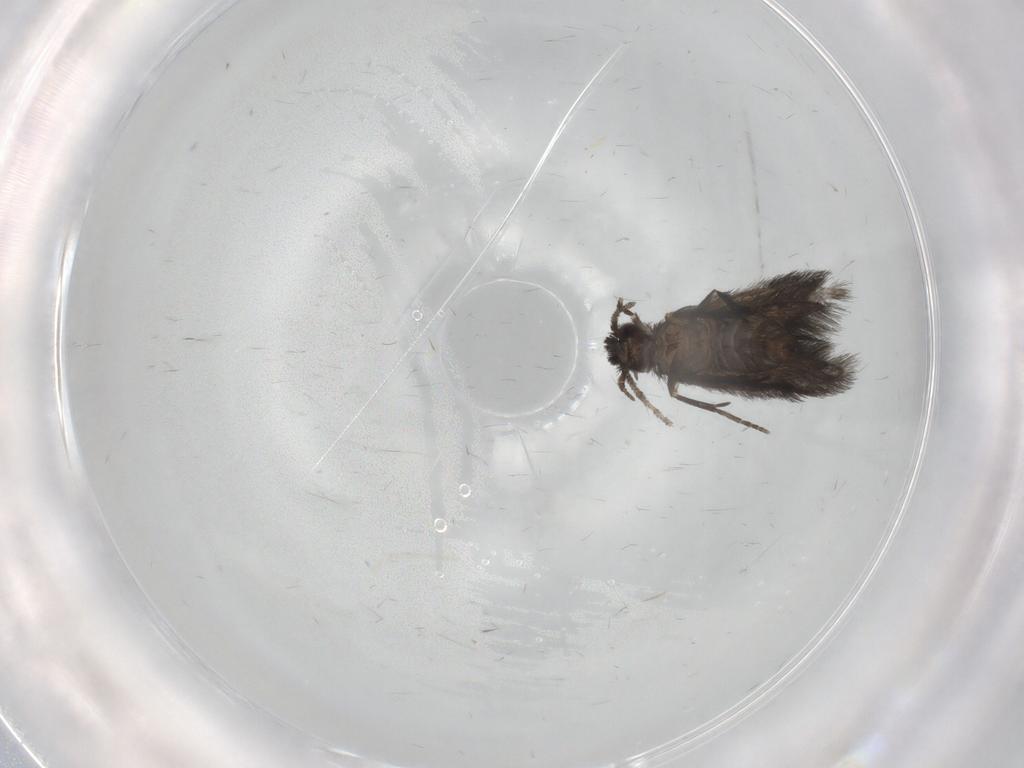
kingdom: Animalia
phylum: Arthropoda
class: Insecta
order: Trichoptera
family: Hydroptilidae
